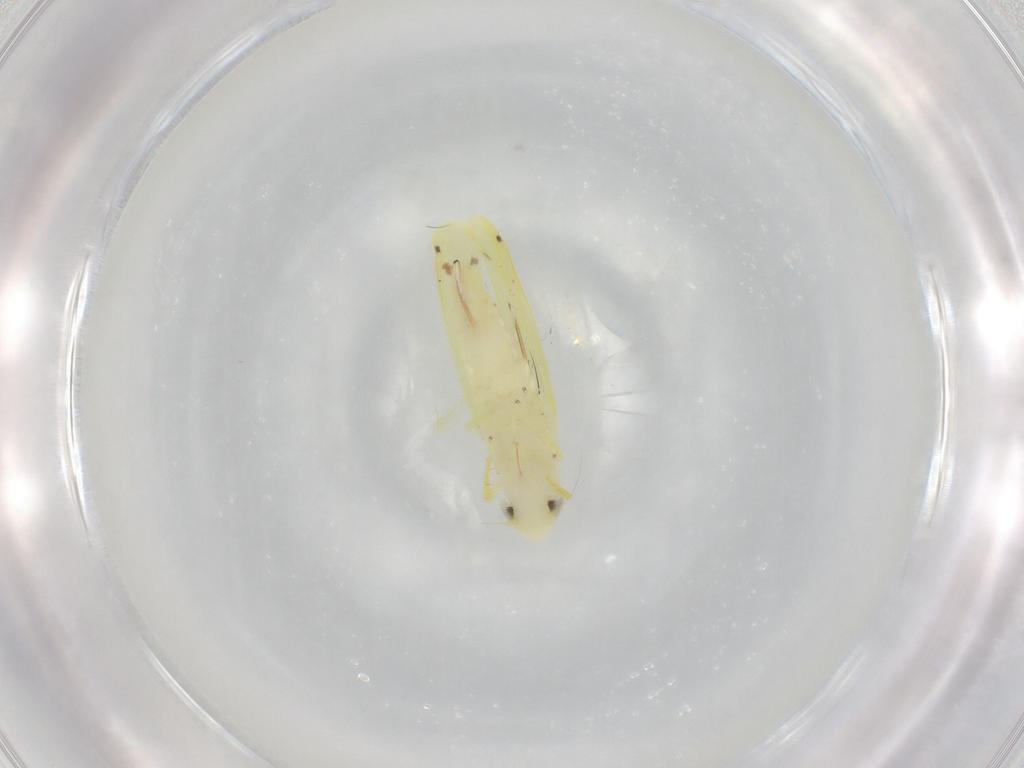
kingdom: Animalia
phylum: Arthropoda
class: Insecta
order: Hemiptera
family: Cicadellidae
